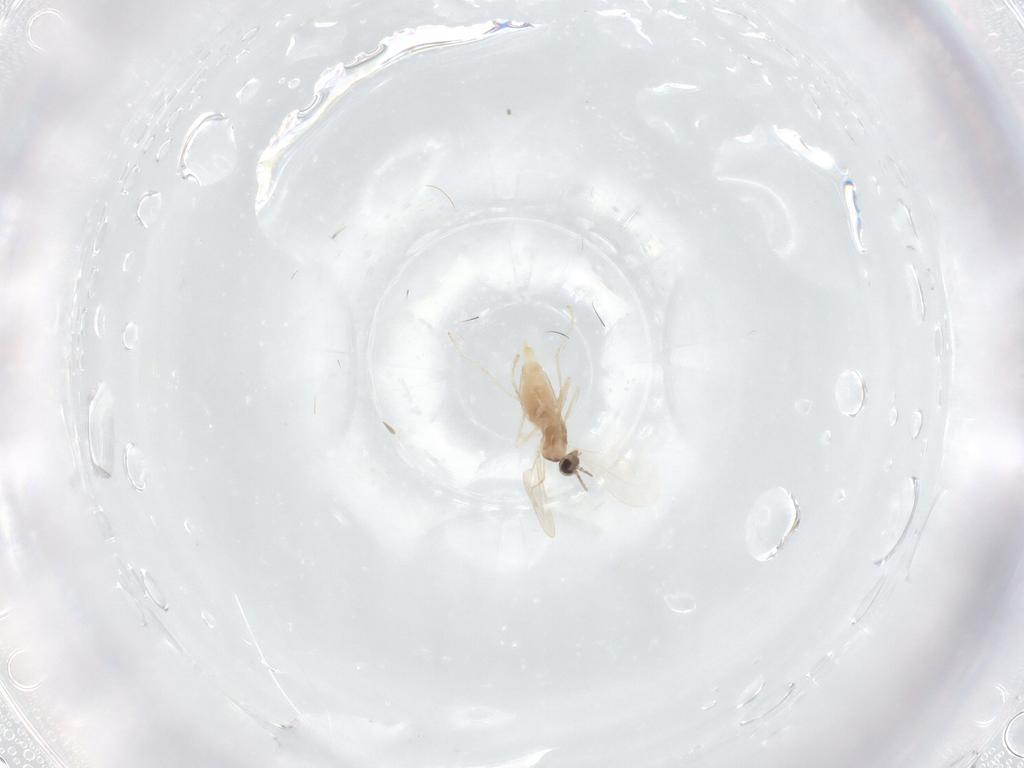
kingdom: Animalia
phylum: Arthropoda
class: Insecta
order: Diptera
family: Cecidomyiidae
